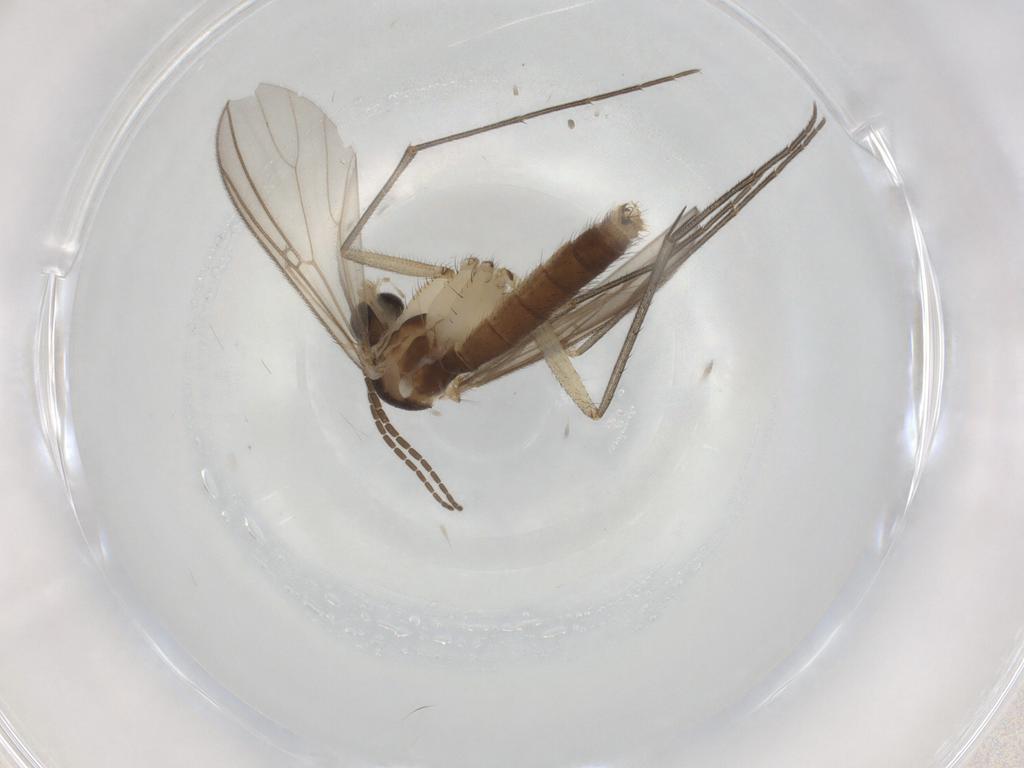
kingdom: Animalia
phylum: Arthropoda
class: Insecta
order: Diptera
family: Mycetophilidae
